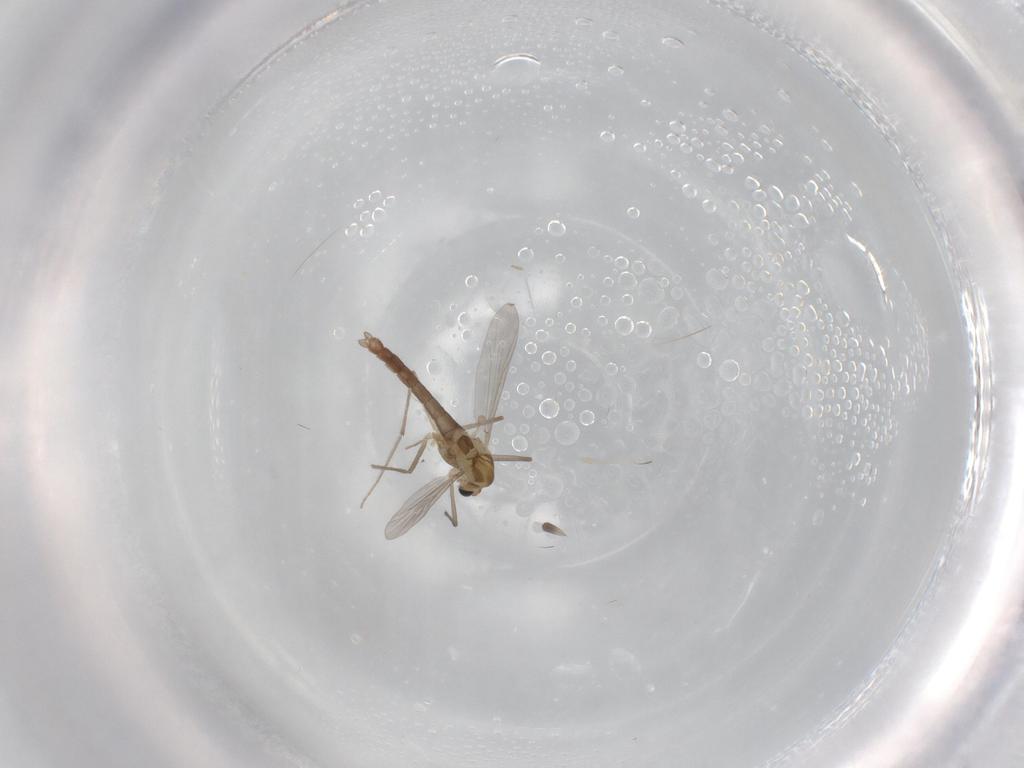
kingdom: Animalia
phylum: Arthropoda
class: Insecta
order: Diptera
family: Chironomidae
